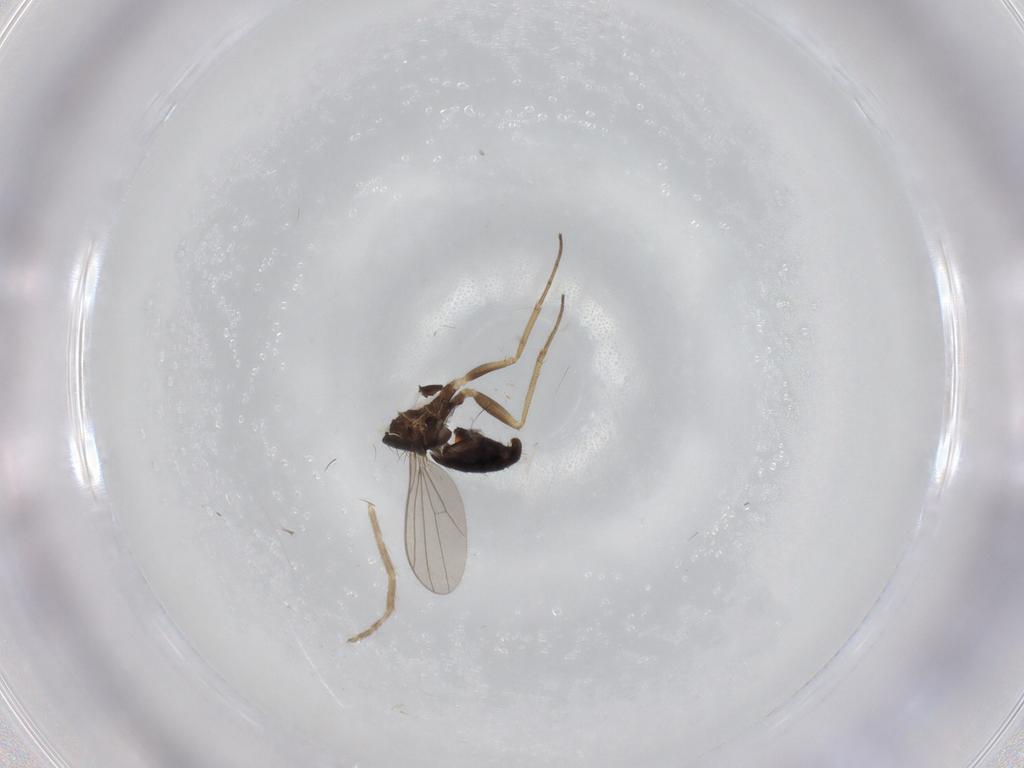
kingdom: Animalia
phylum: Arthropoda
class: Insecta
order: Diptera
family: Dolichopodidae
